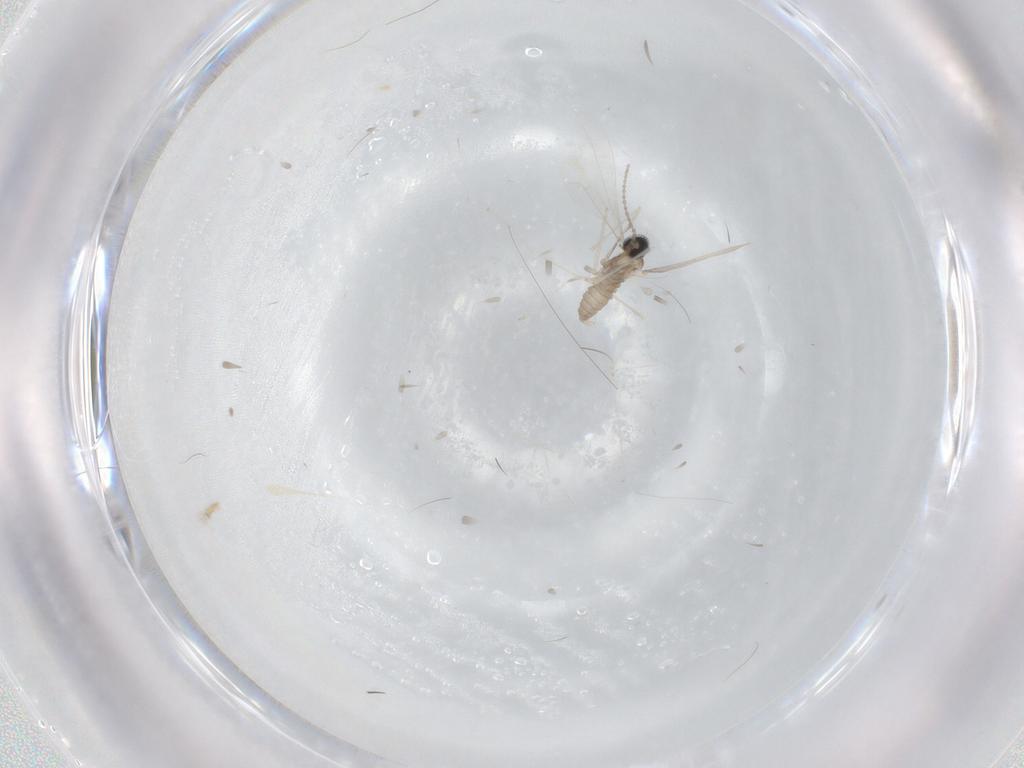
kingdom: Animalia
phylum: Arthropoda
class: Insecta
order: Diptera
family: Cecidomyiidae
